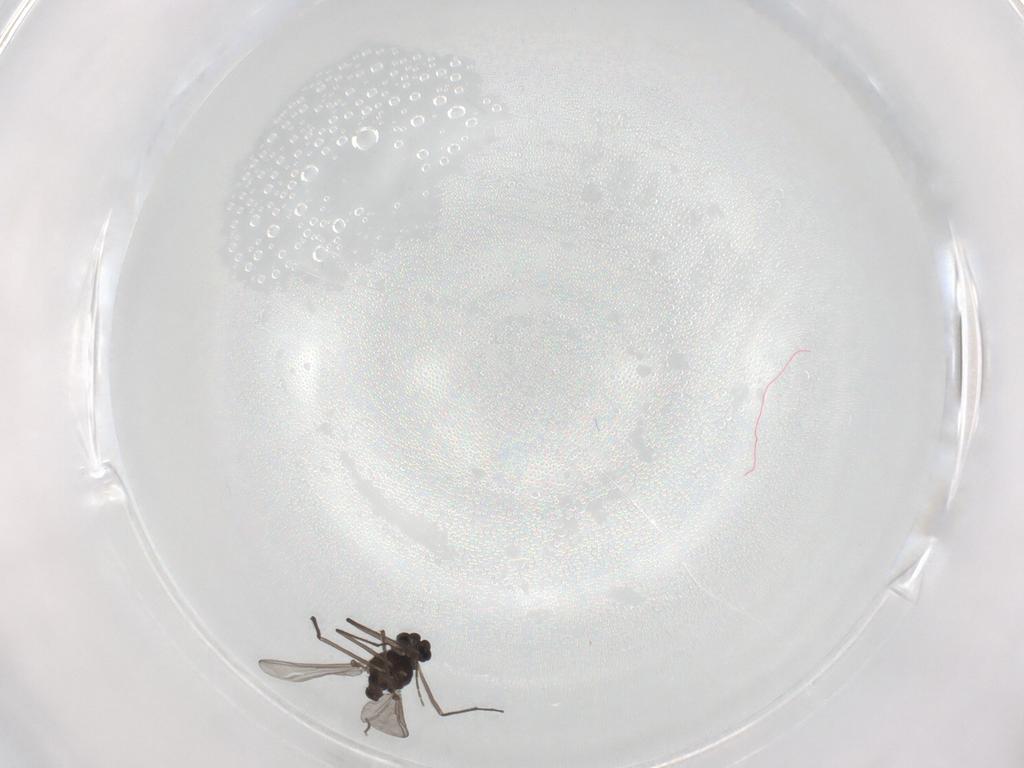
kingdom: Animalia
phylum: Arthropoda
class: Insecta
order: Diptera
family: Chironomidae
